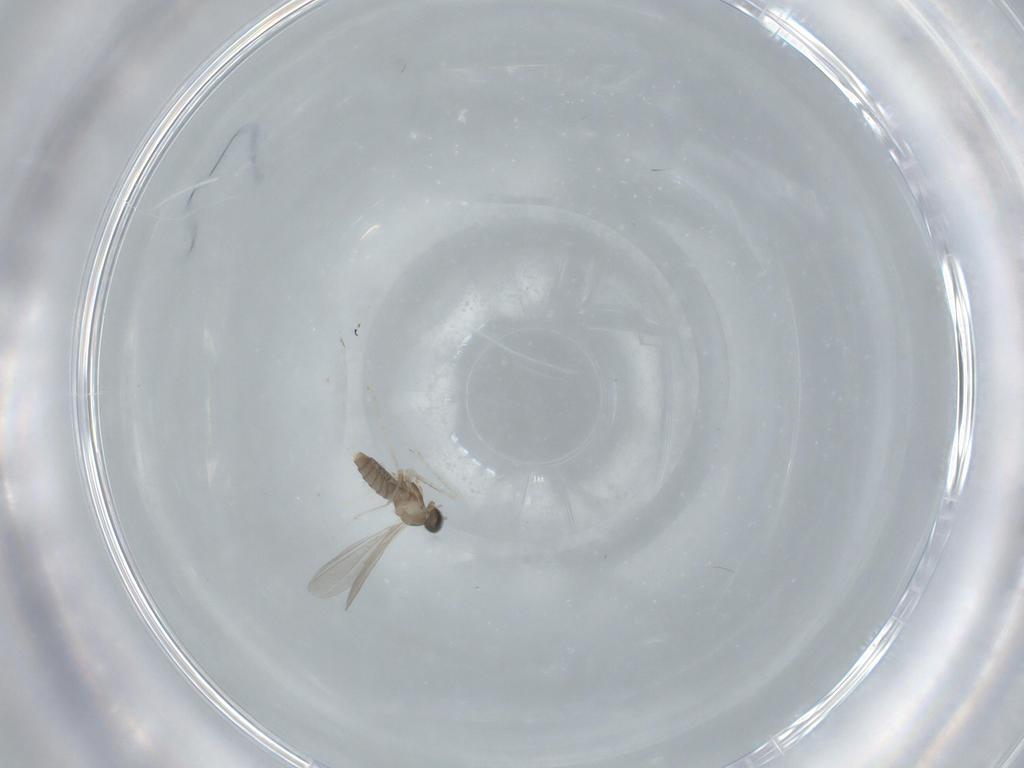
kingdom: Animalia
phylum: Arthropoda
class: Insecta
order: Diptera
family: Cecidomyiidae
